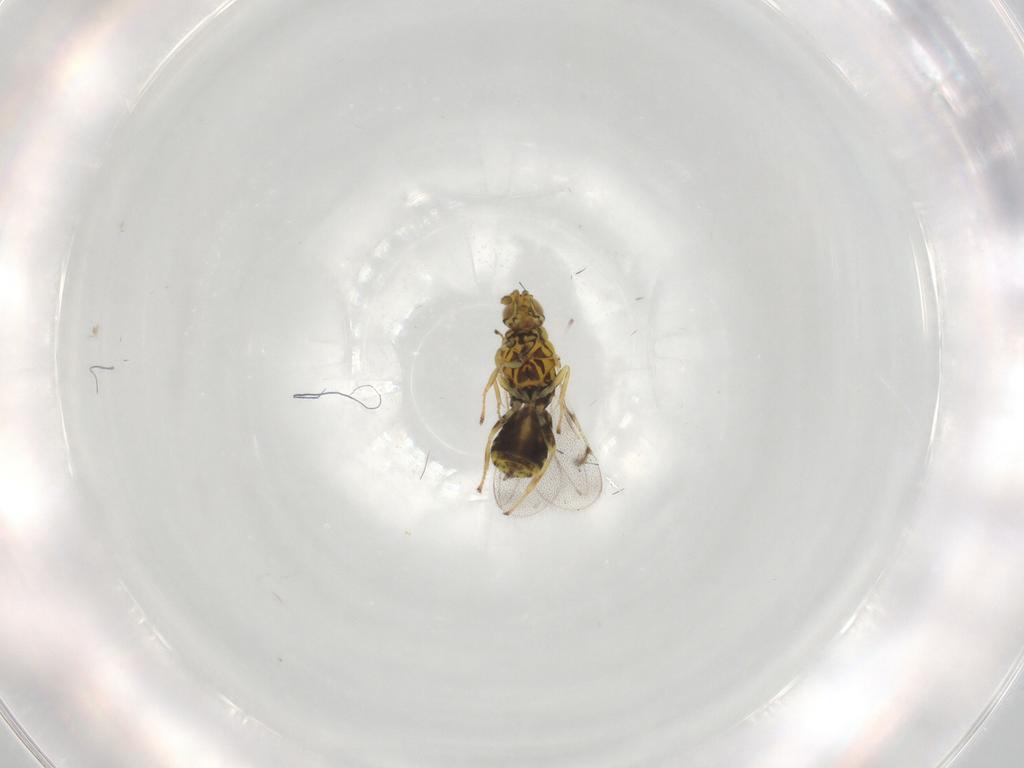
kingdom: Animalia
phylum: Arthropoda
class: Insecta
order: Hymenoptera
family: Eulophidae
